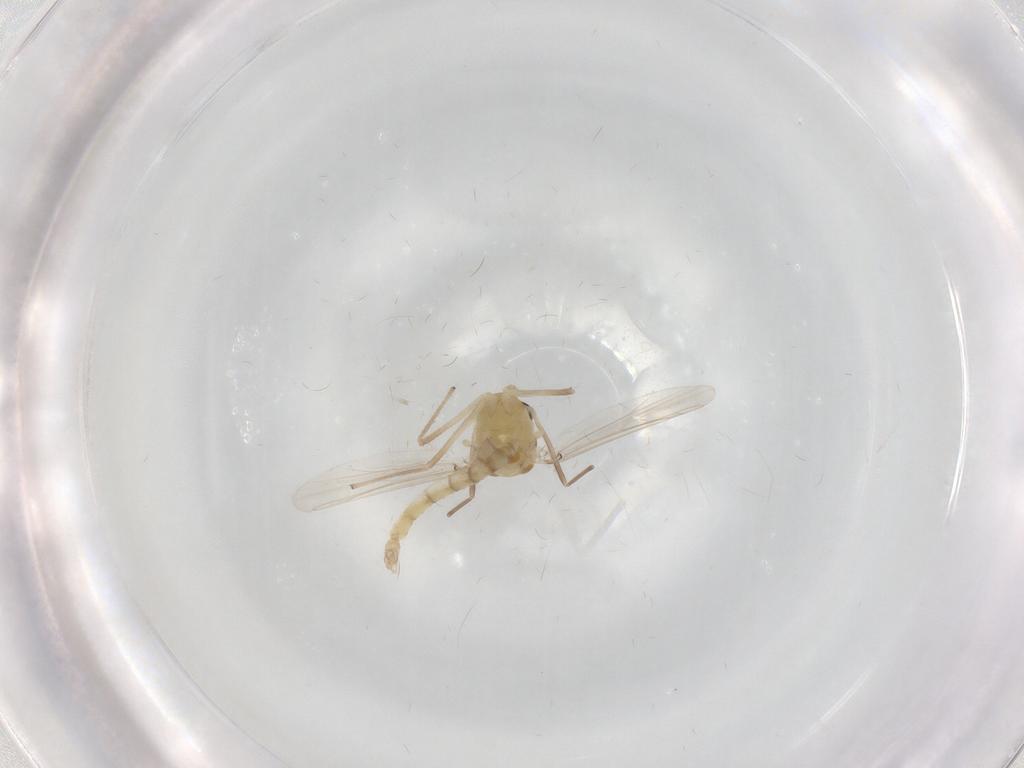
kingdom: Animalia
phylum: Arthropoda
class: Insecta
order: Diptera
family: Chironomidae
